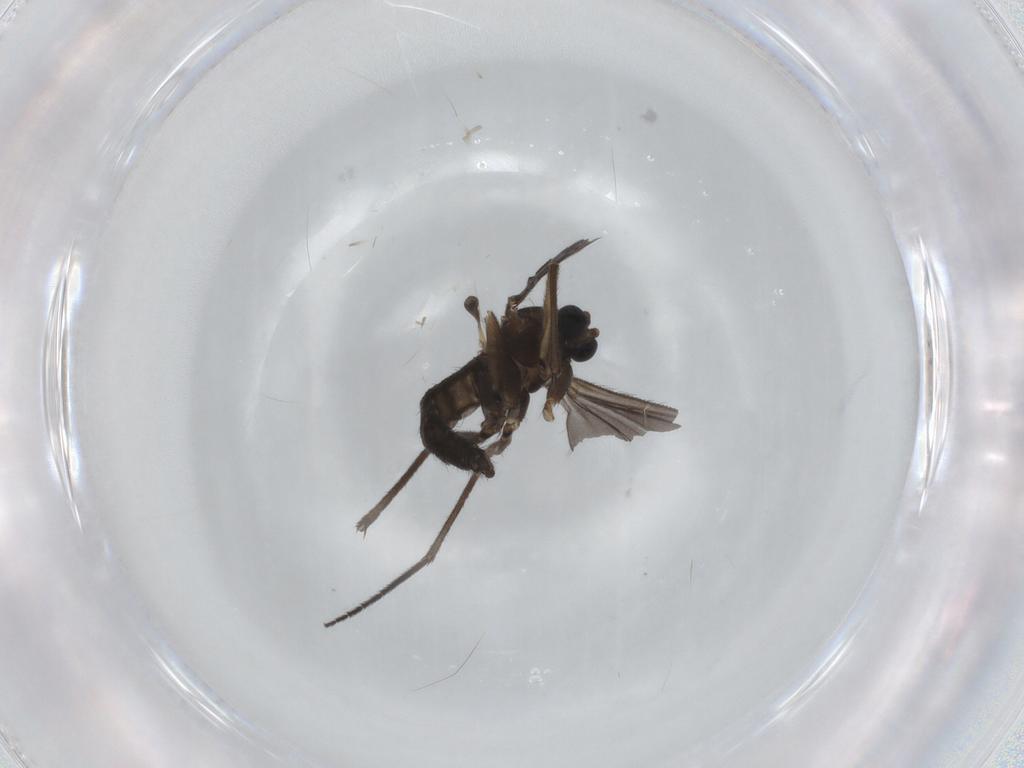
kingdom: Animalia
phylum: Arthropoda
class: Insecta
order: Diptera
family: Sciaridae
